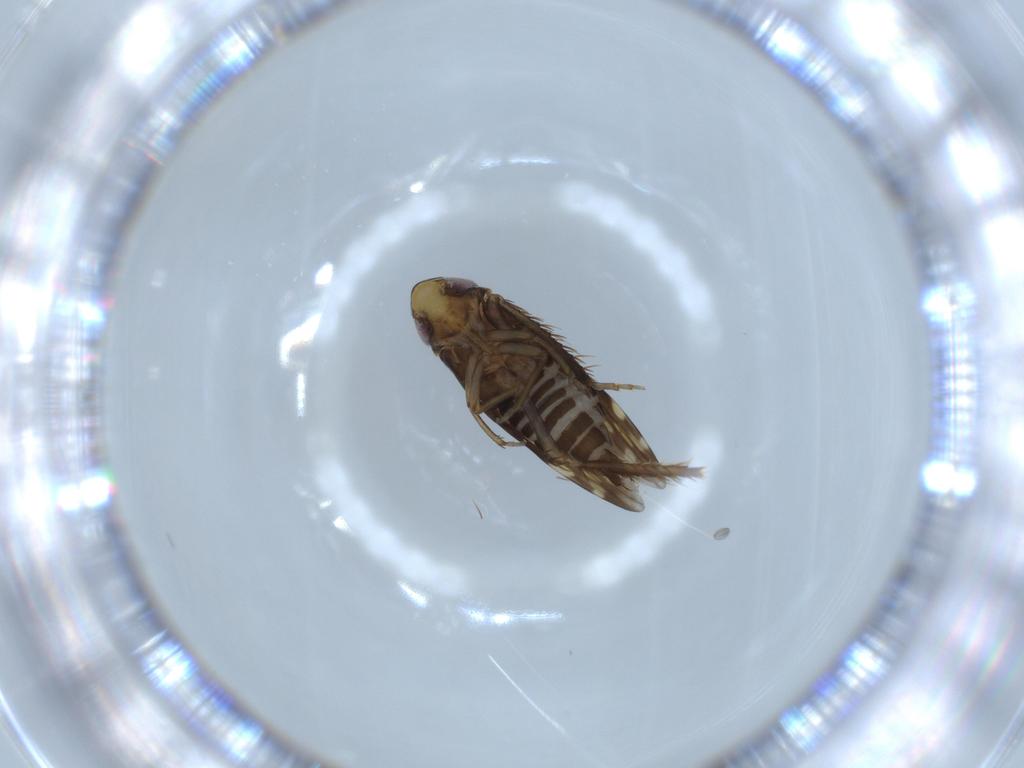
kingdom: Animalia
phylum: Arthropoda
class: Insecta
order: Hemiptera
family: Cicadellidae
